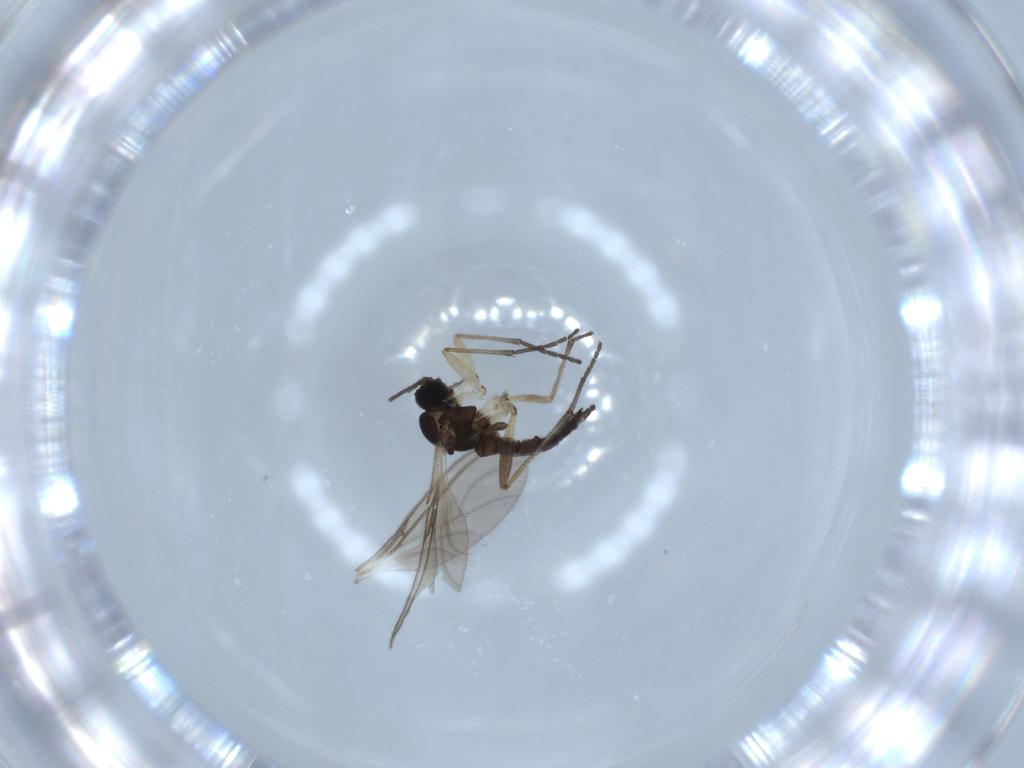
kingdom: Animalia
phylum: Arthropoda
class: Insecta
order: Diptera
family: Sciaridae
